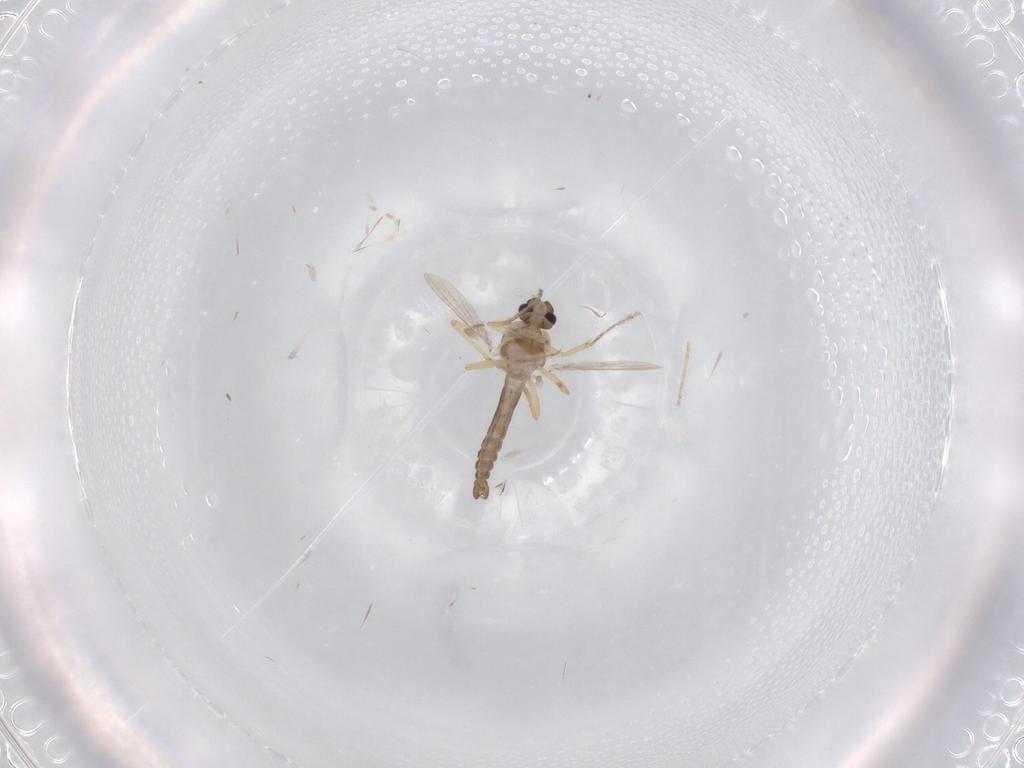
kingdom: Animalia
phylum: Arthropoda
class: Insecta
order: Diptera
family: Ceratopogonidae
